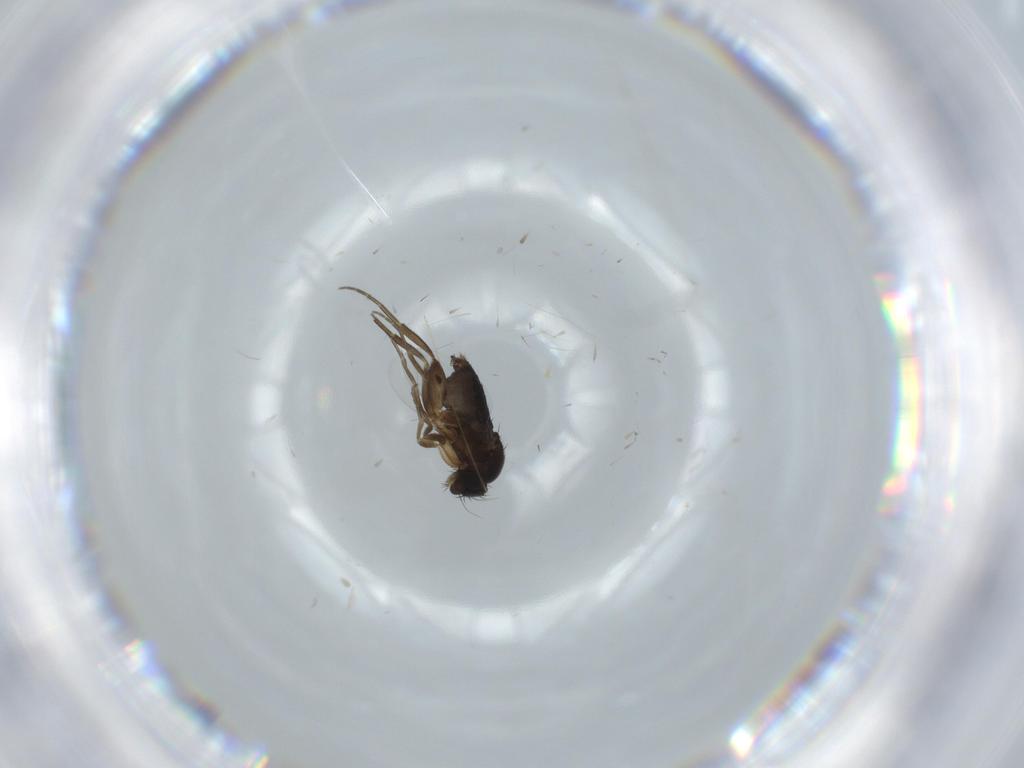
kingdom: Animalia
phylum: Arthropoda
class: Insecta
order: Diptera
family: Phoridae
